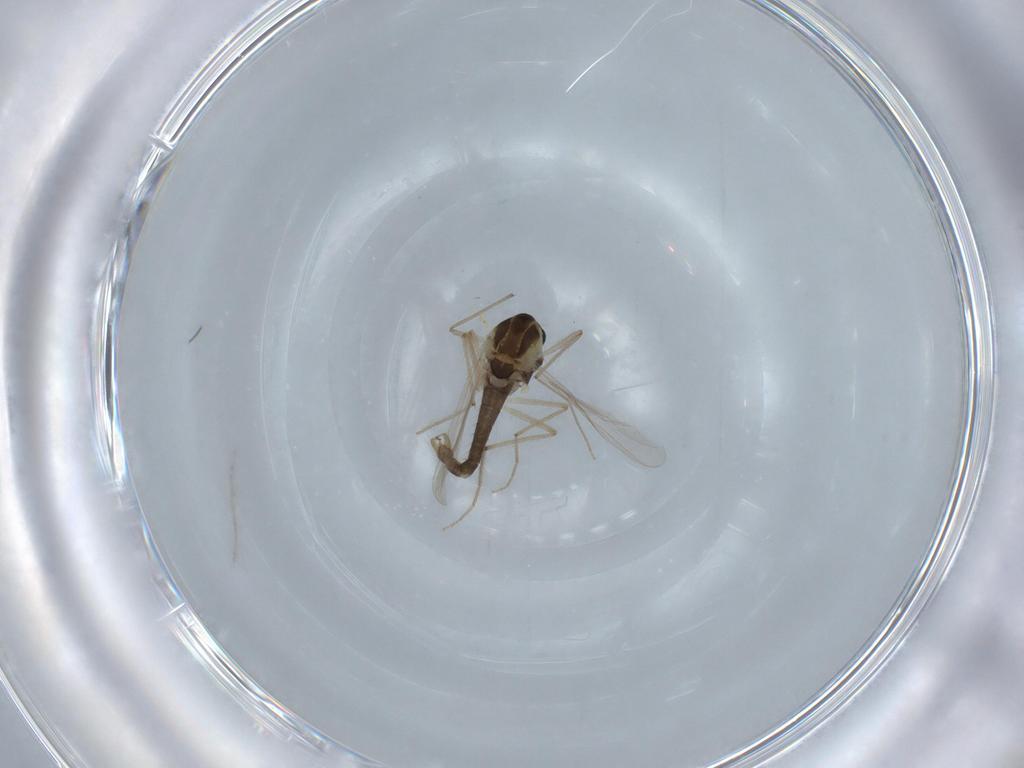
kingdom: Animalia
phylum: Arthropoda
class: Insecta
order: Diptera
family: Chironomidae
